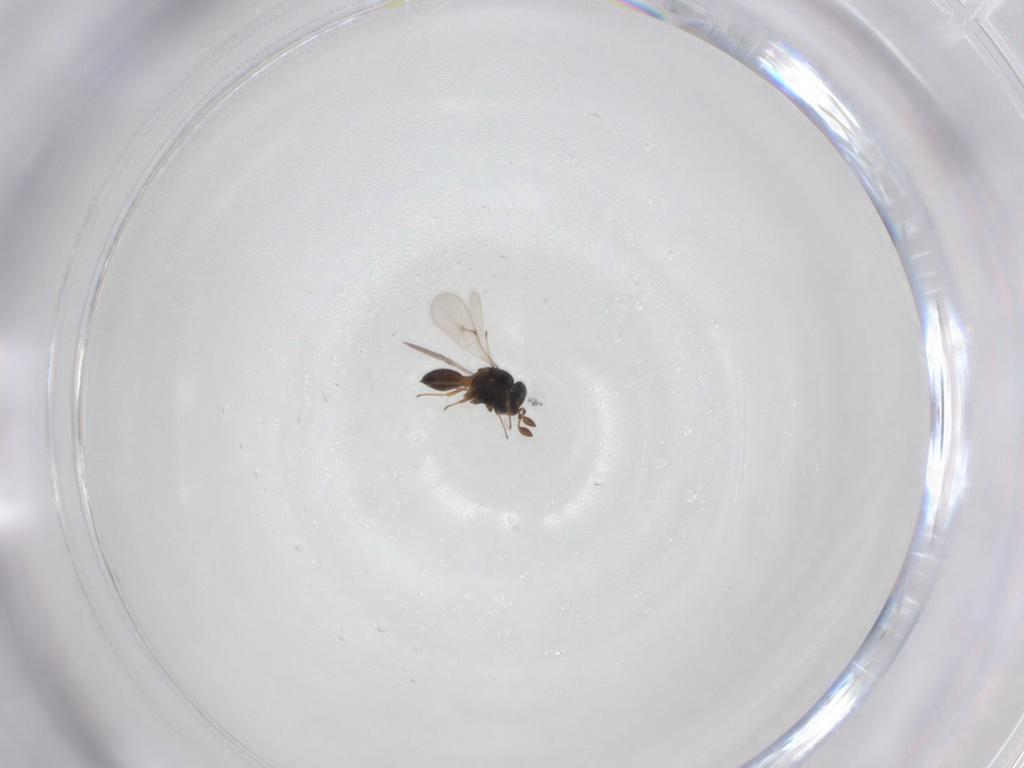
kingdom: Animalia
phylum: Arthropoda
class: Insecta
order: Hymenoptera
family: Scelionidae
